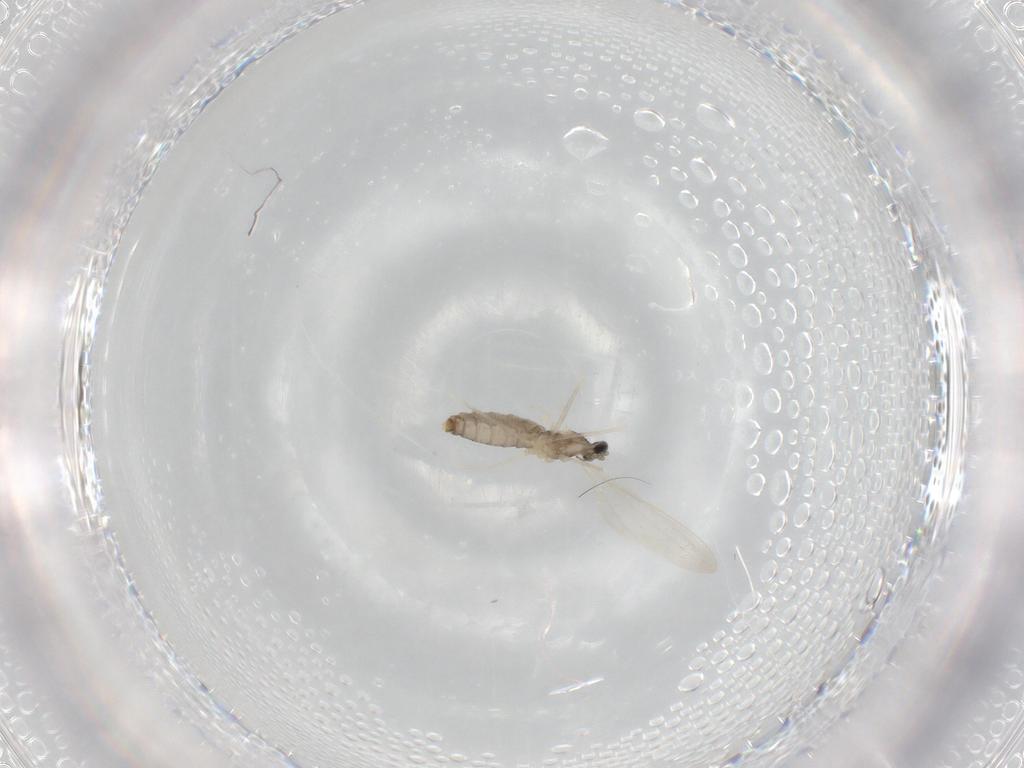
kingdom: Animalia
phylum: Arthropoda
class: Insecta
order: Diptera
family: Cecidomyiidae
